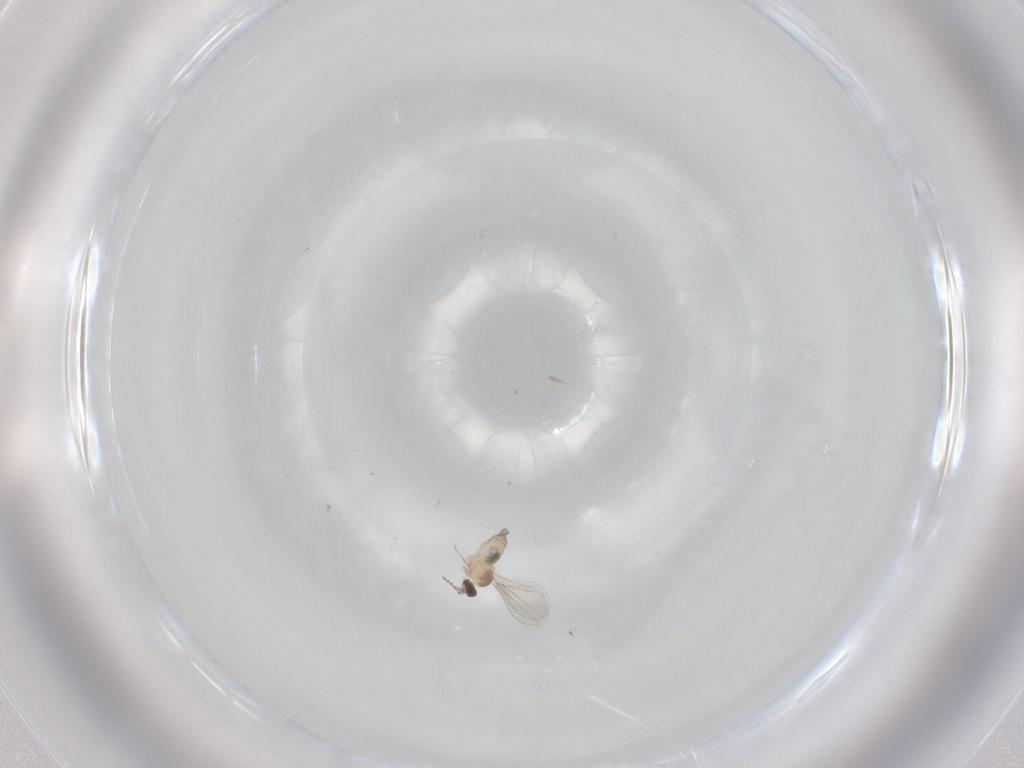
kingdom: Animalia
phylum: Arthropoda
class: Insecta
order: Diptera
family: Cecidomyiidae
